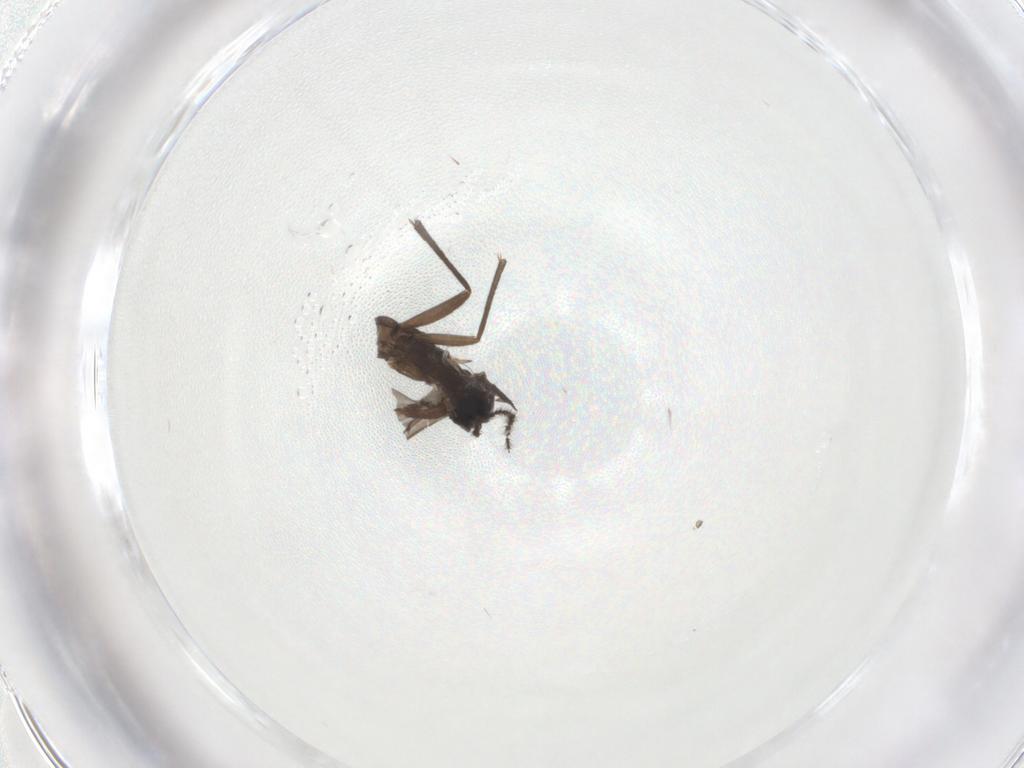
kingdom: Animalia
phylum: Arthropoda
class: Insecta
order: Diptera
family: Sciaridae
